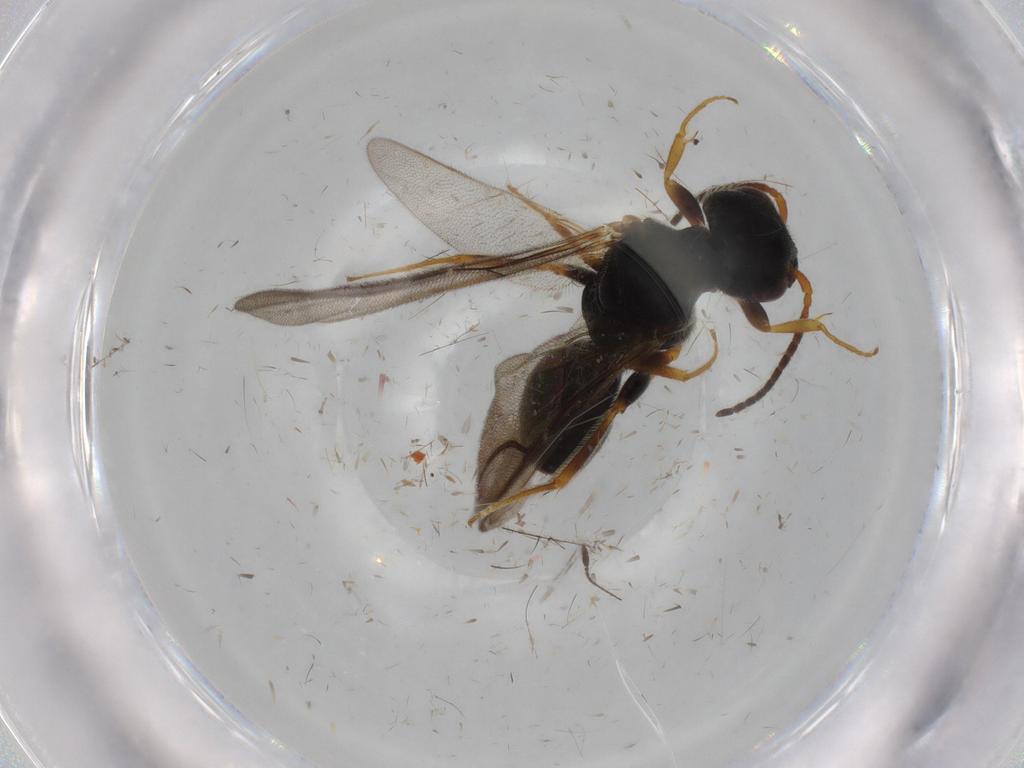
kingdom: Animalia
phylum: Arthropoda
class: Insecta
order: Hymenoptera
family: Bethylidae
